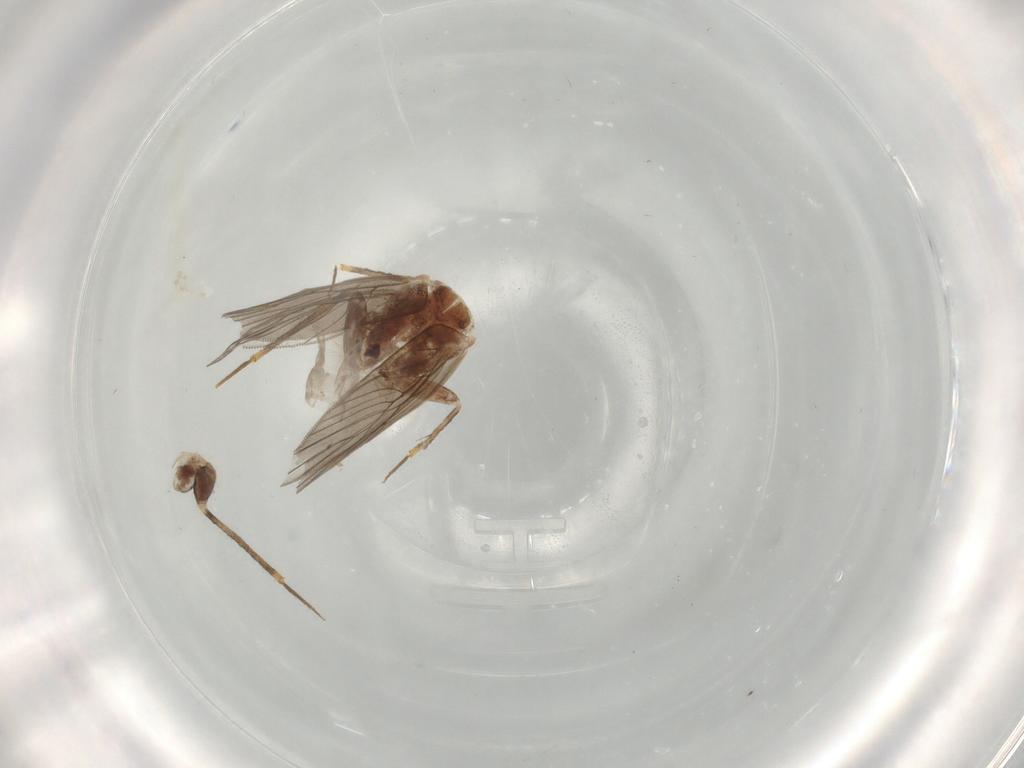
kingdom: Animalia
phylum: Arthropoda
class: Insecta
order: Psocodea
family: Lepidopsocidae
